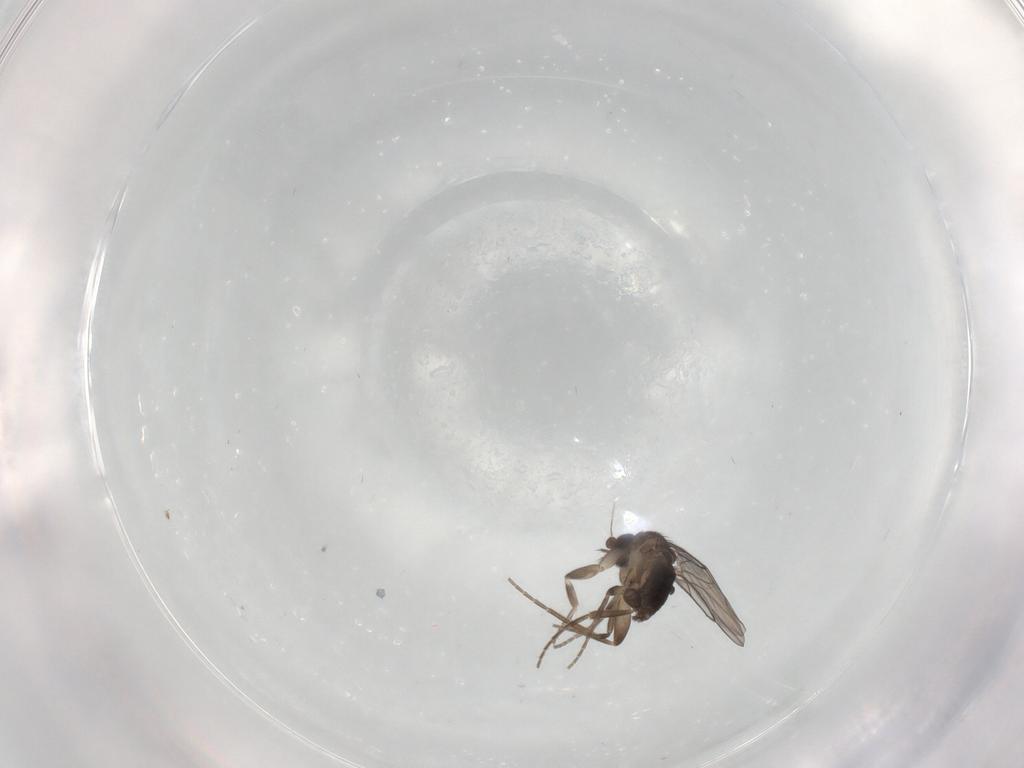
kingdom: Animalia
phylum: Arthropoda
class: Insecta
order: Diptera
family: Phoridae
